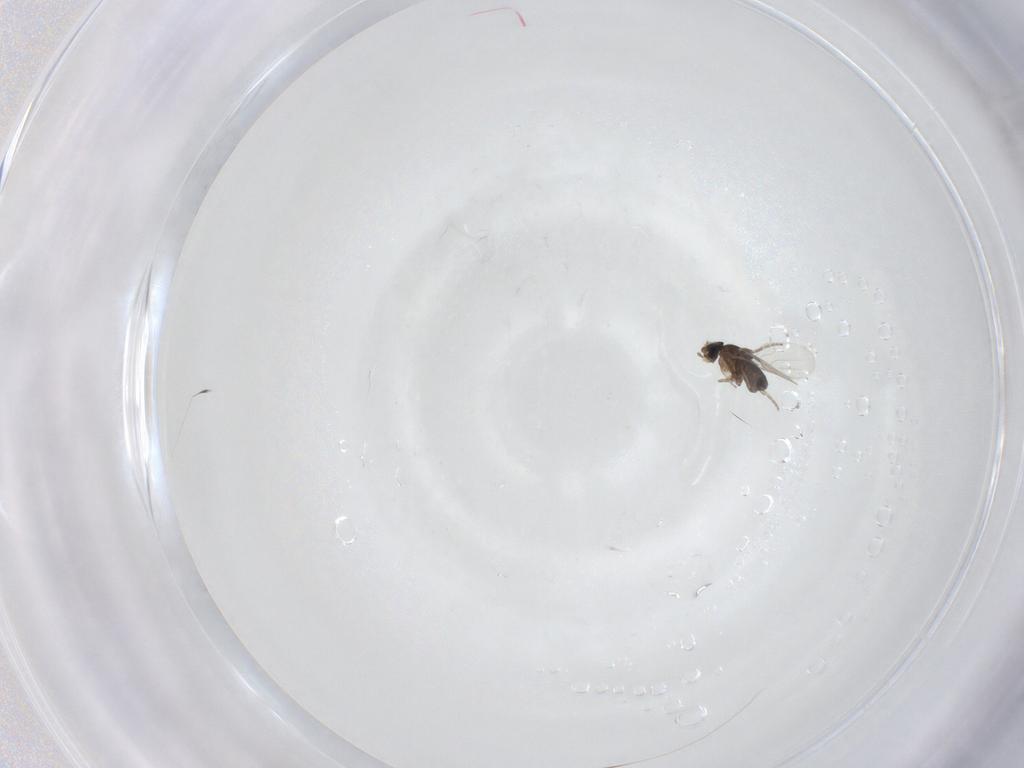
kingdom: Animalia
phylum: Arthropoda
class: Insecta
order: Diptera
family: Phoridae
